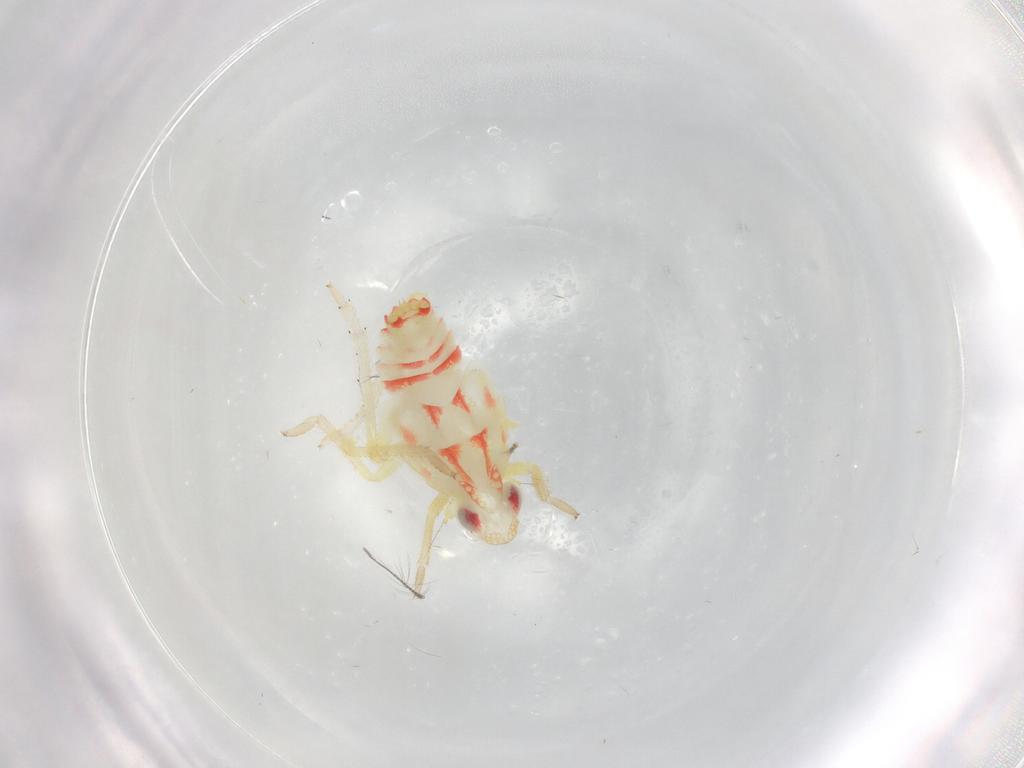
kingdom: Animalia
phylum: Arthropoda
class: Insecta
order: Hemiptera
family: Tropiduchidae
